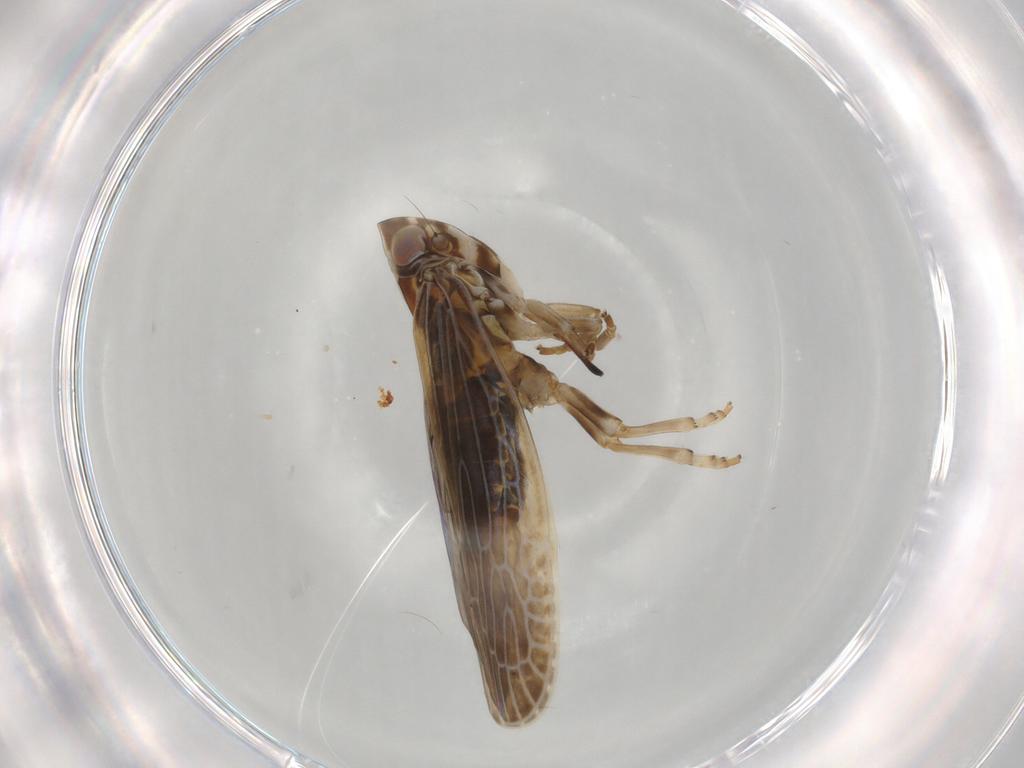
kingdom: Animalia
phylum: Arthropoda
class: Insecta
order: Hemiptera
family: Achilidae
